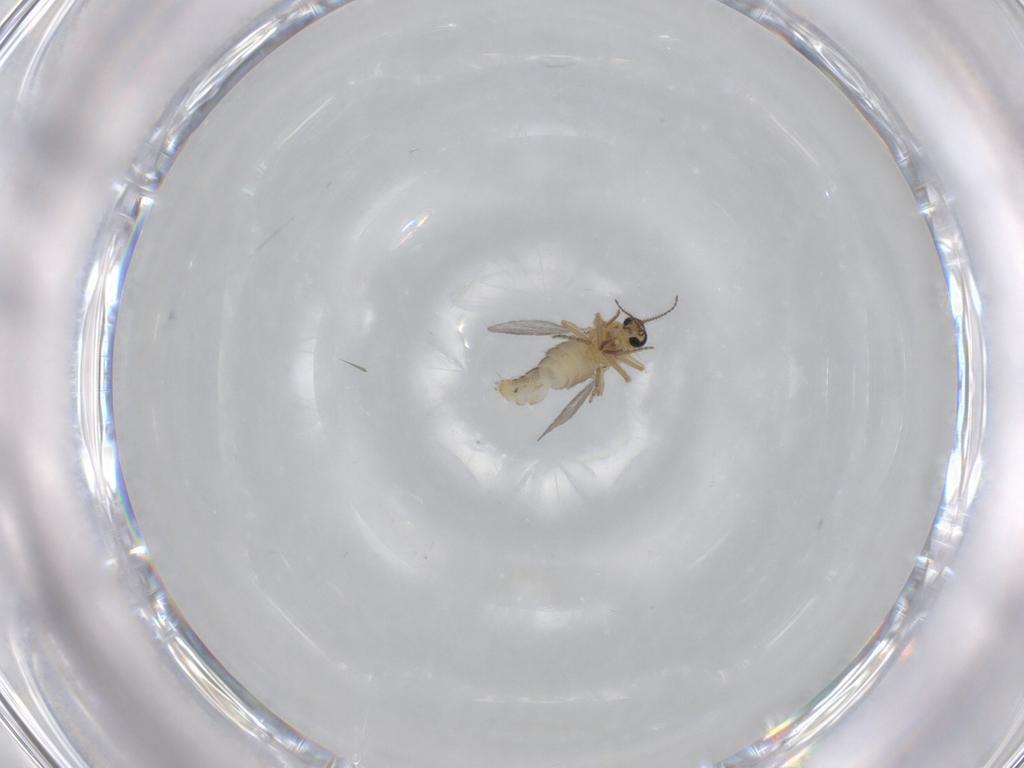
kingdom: Animalia
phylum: Arthropoda
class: Insecta
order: Diptera
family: Ceratopogonidae
